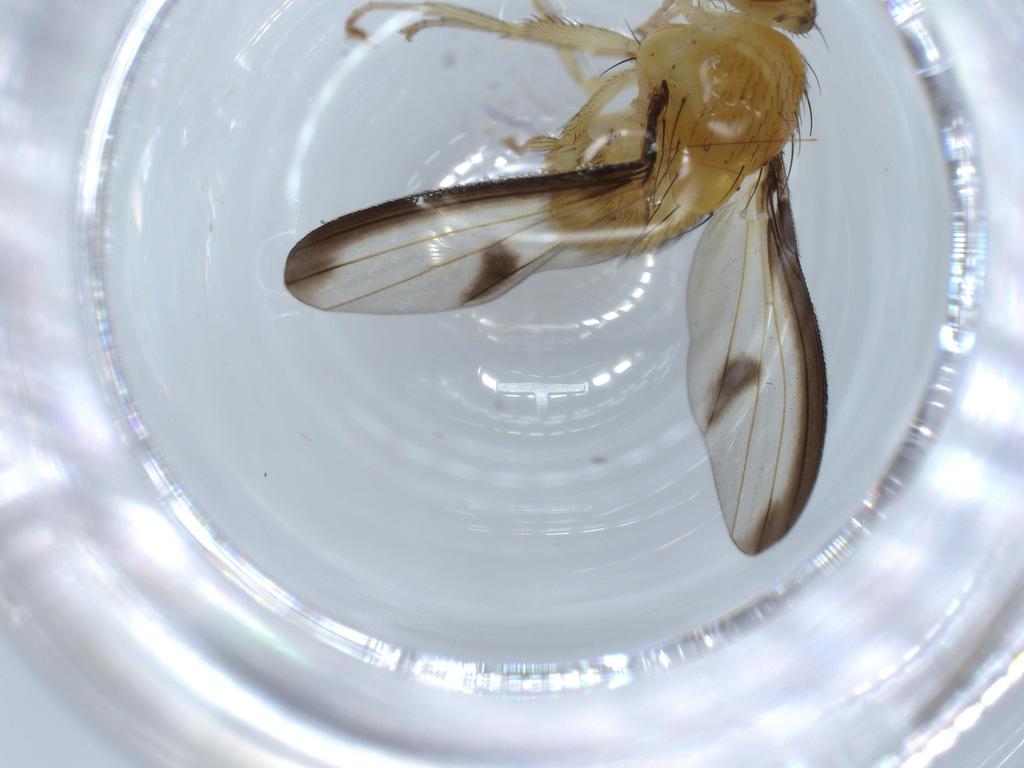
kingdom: Animalia
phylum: Arthropoda
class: Insecta
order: Diptera
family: Lauxaniidae
